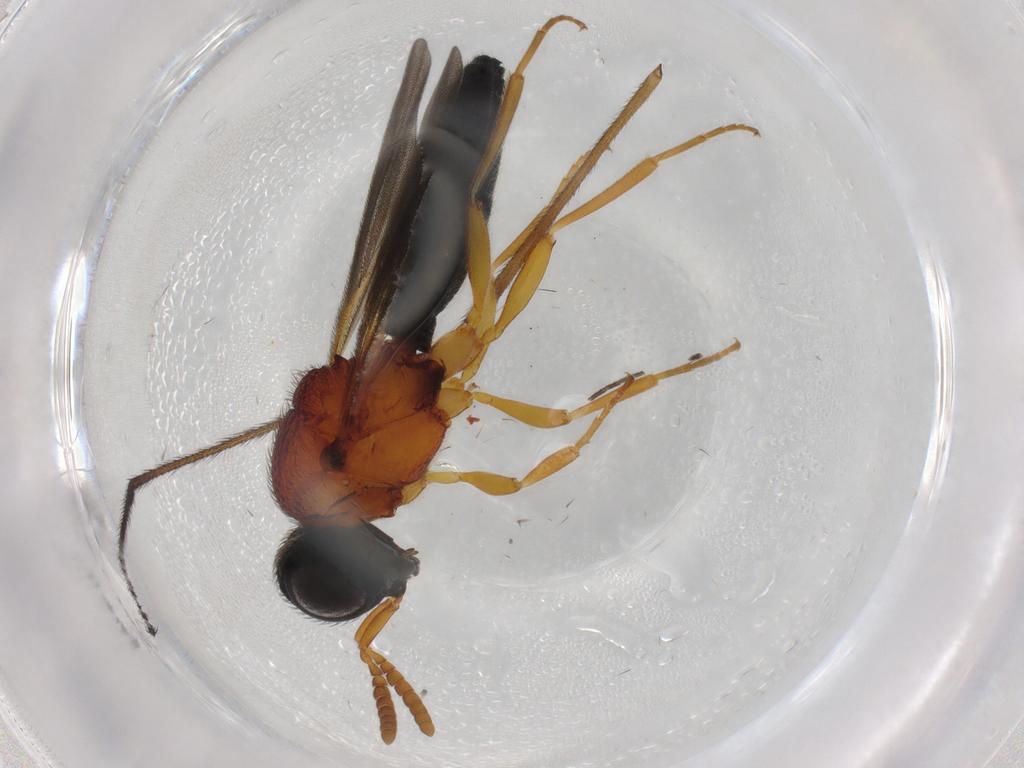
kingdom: Animalia
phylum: Arthropoda
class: Insecta
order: Hymenoptera
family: Scelionidae
